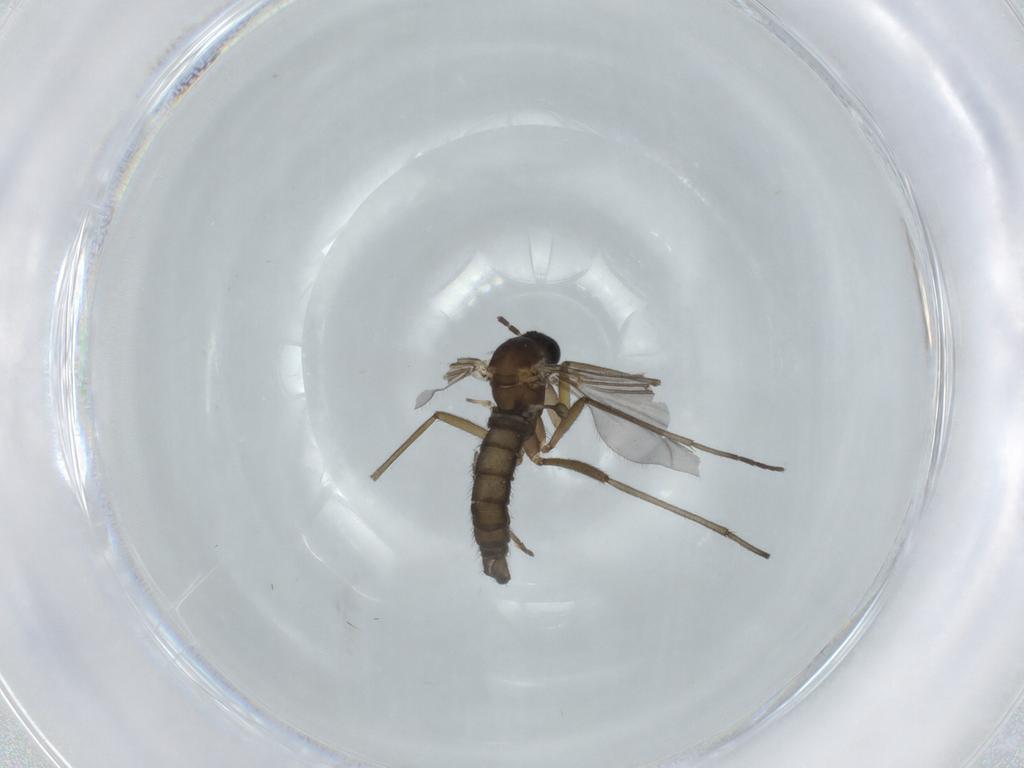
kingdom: Animalia
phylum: Arthropoda
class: Insecta
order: Diptera
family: Sciaridae
